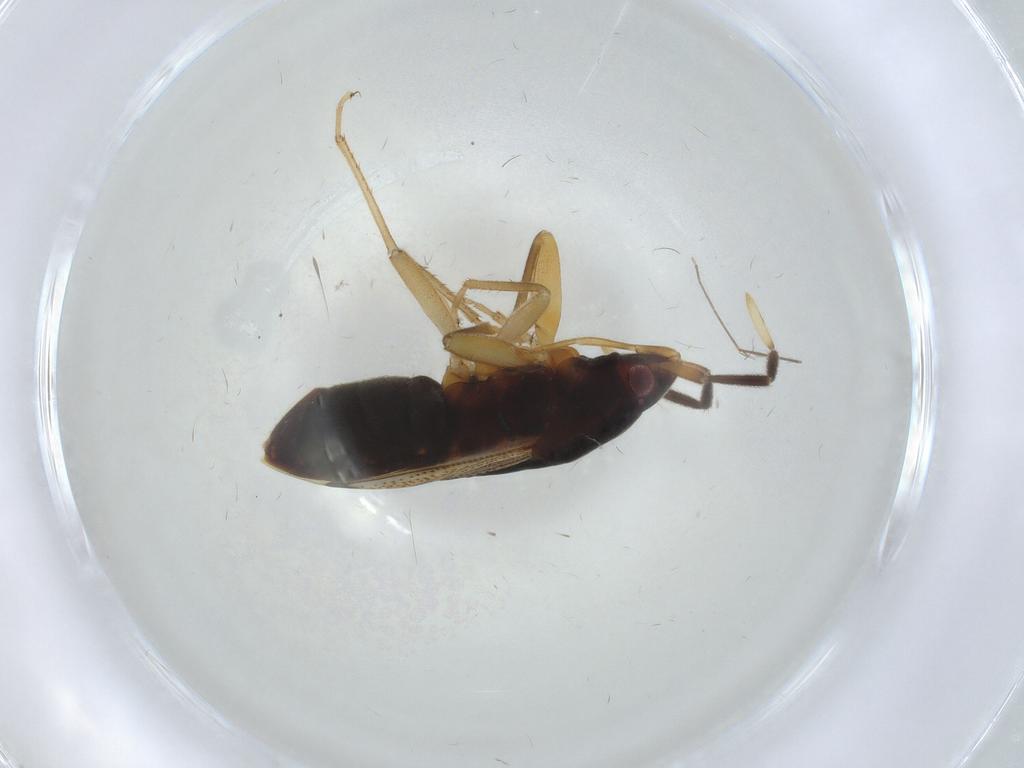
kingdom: Animalia
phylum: Arthropoda
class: Insecta
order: Hemiptera
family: Rhyparochromidae
